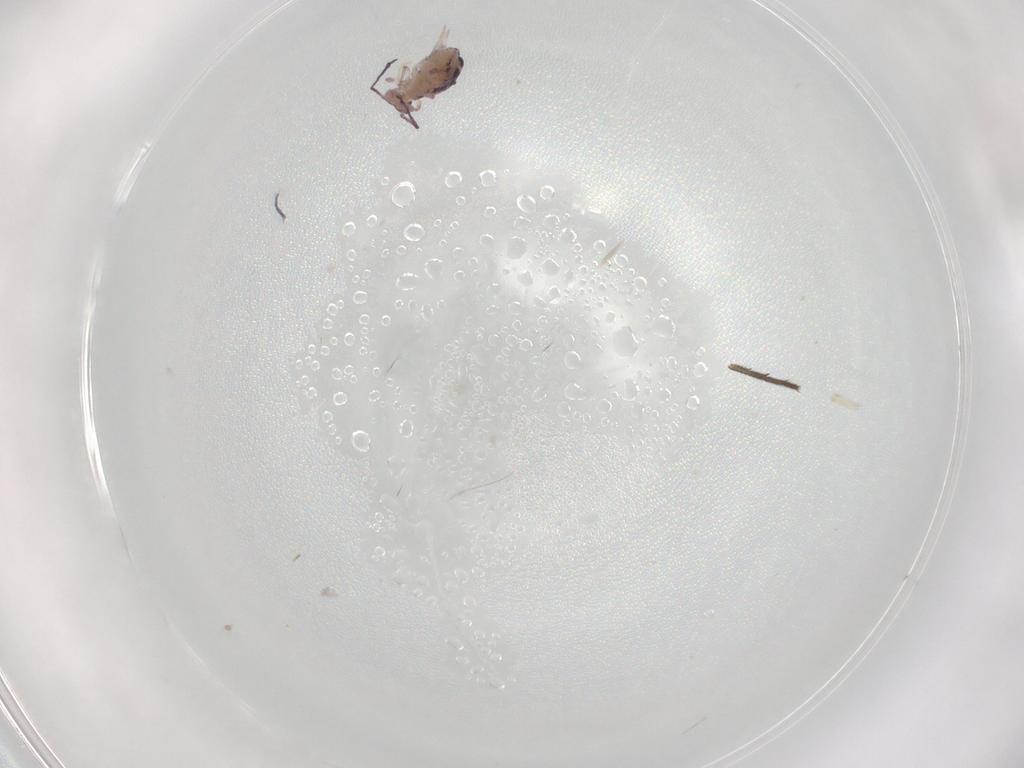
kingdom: Animalia
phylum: Arthropoda
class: Collembola
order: Symphypleona
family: Dicyrtomidae
